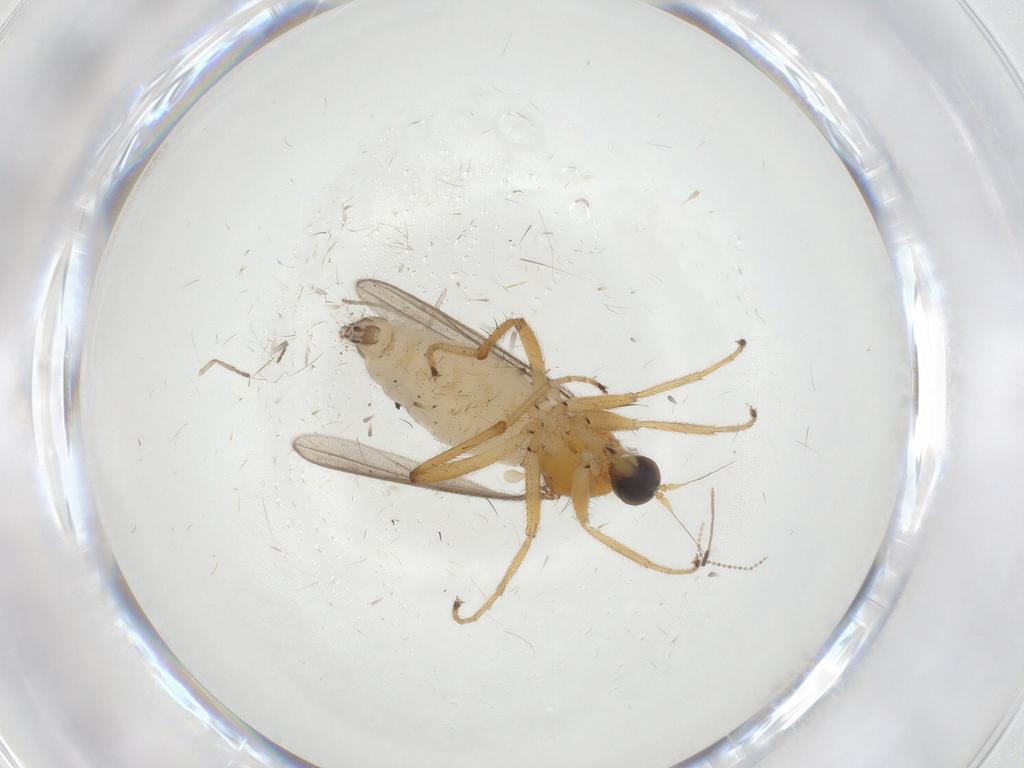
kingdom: Animalia
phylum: Arthropoda
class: Insecta
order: Diptera
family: Hybotidae
